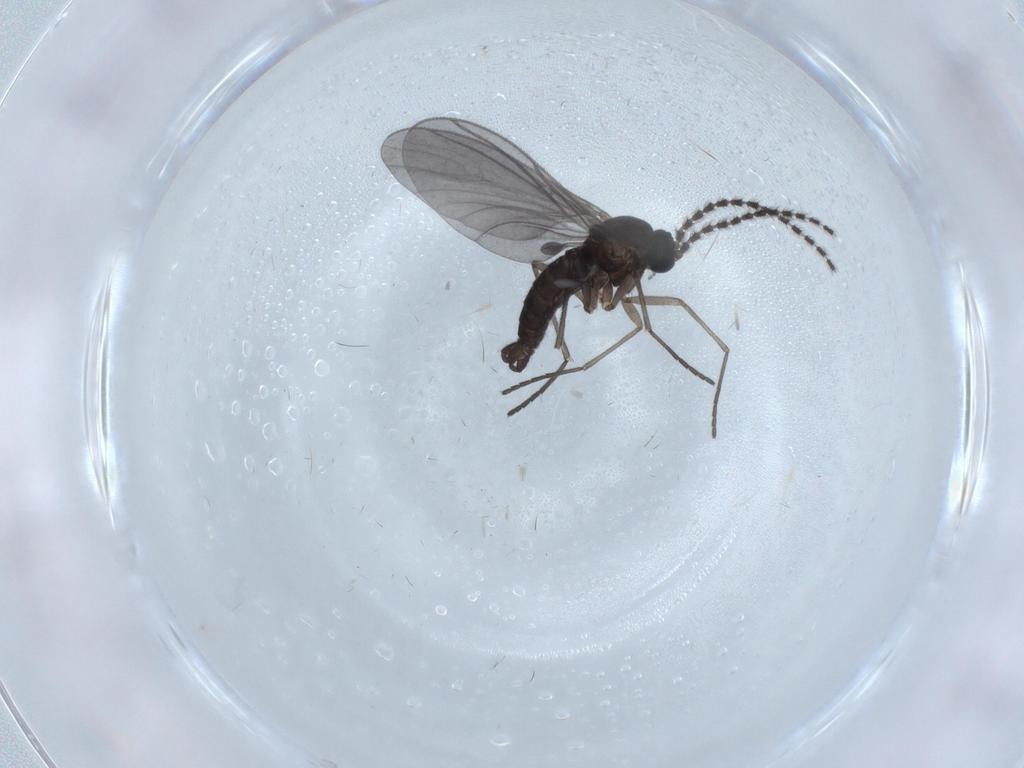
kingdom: Animalia
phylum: Arthropoda
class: Insecta
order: Diptera
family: Sciaridae
